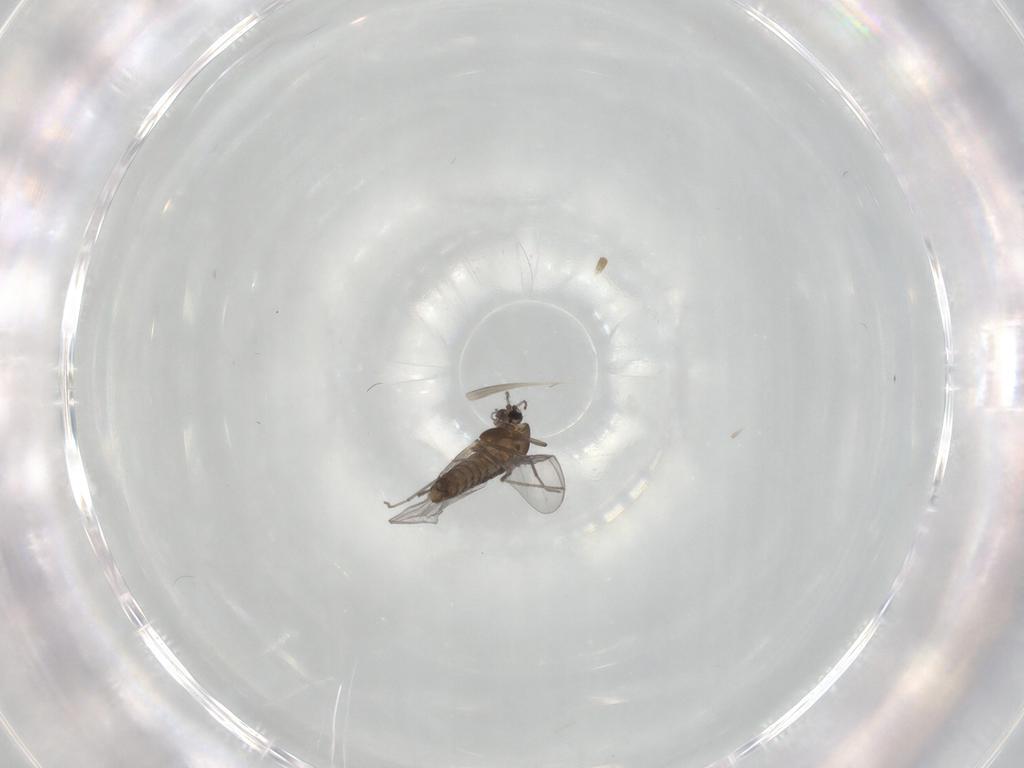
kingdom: Animalia
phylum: Arthropoda
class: Insecta
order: Diptera
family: Chironomidae
